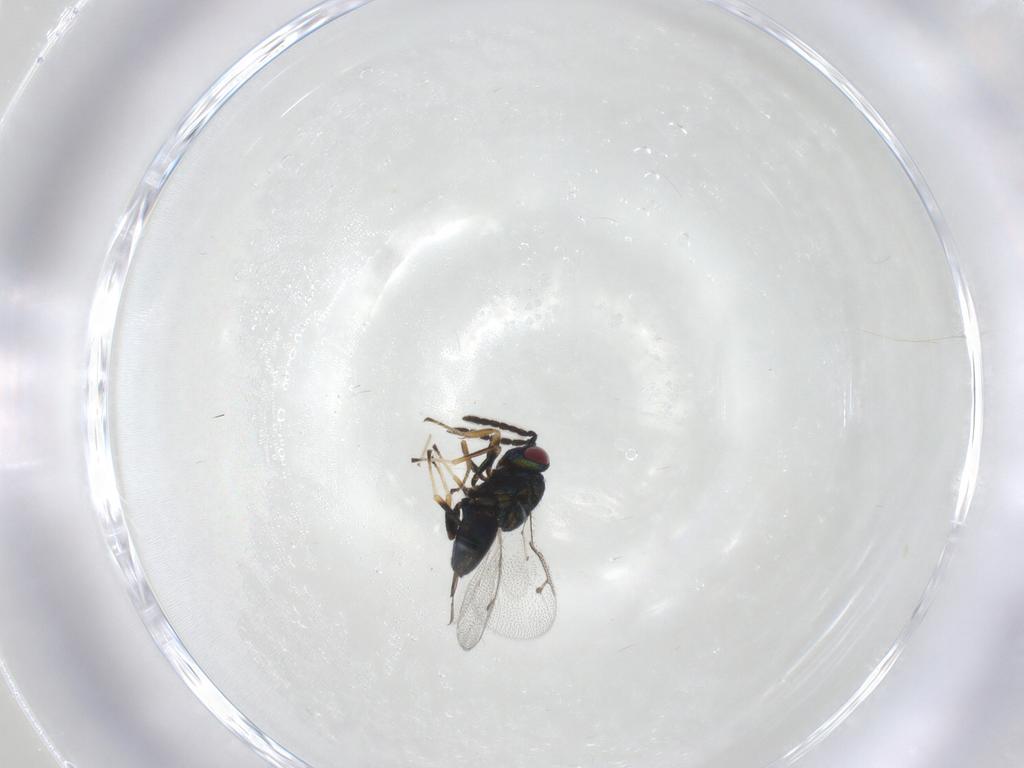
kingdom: Animalia
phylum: Arthropoda
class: Insecta
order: Hymenoptera
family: Pteromalidae
